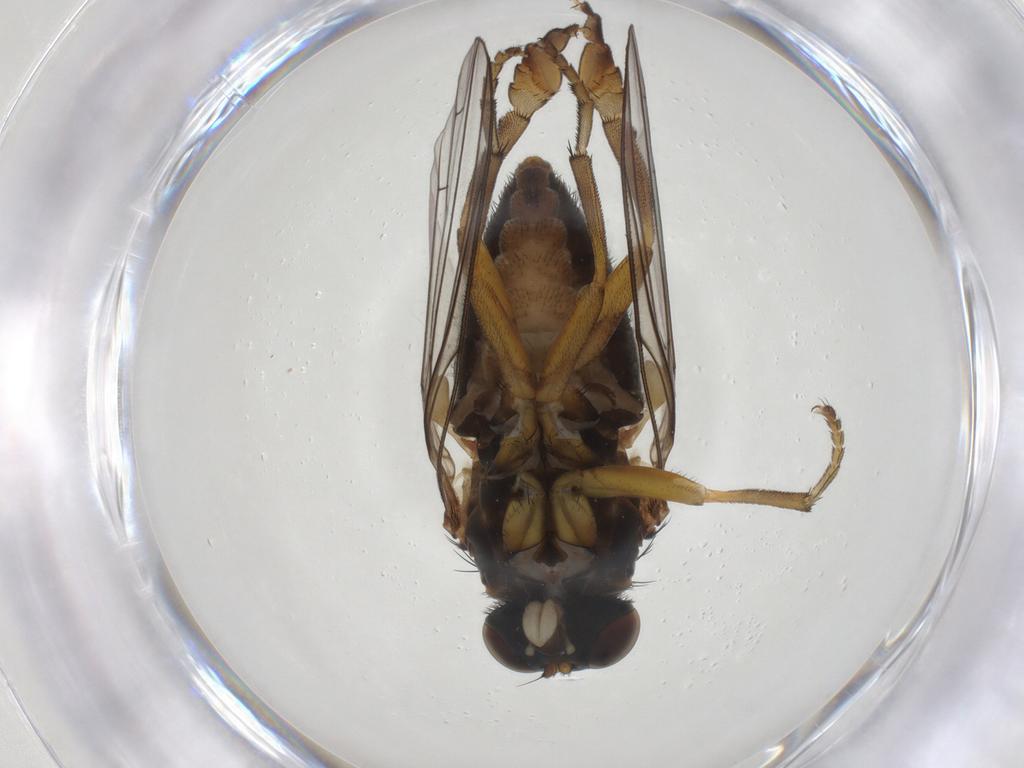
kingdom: Animalia
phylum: Arthropoda
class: Insecta
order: Diptera
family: Platypezidae
